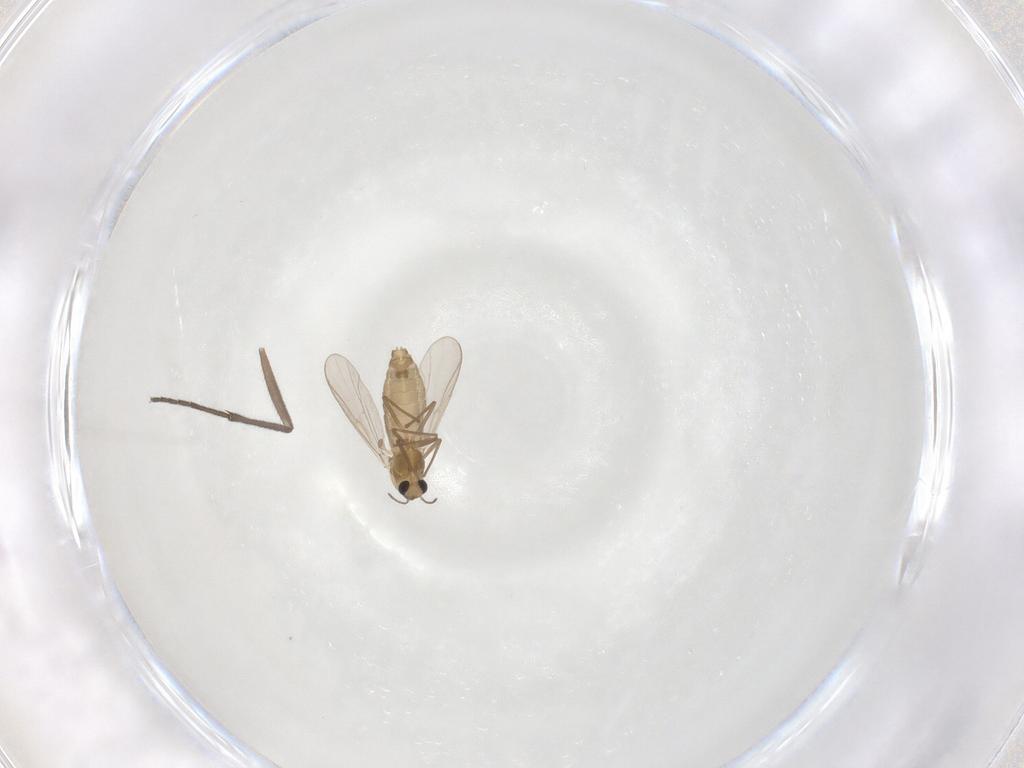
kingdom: Animalia
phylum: Arthropoda
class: Insecta
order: Diptera
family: Chironomidae
